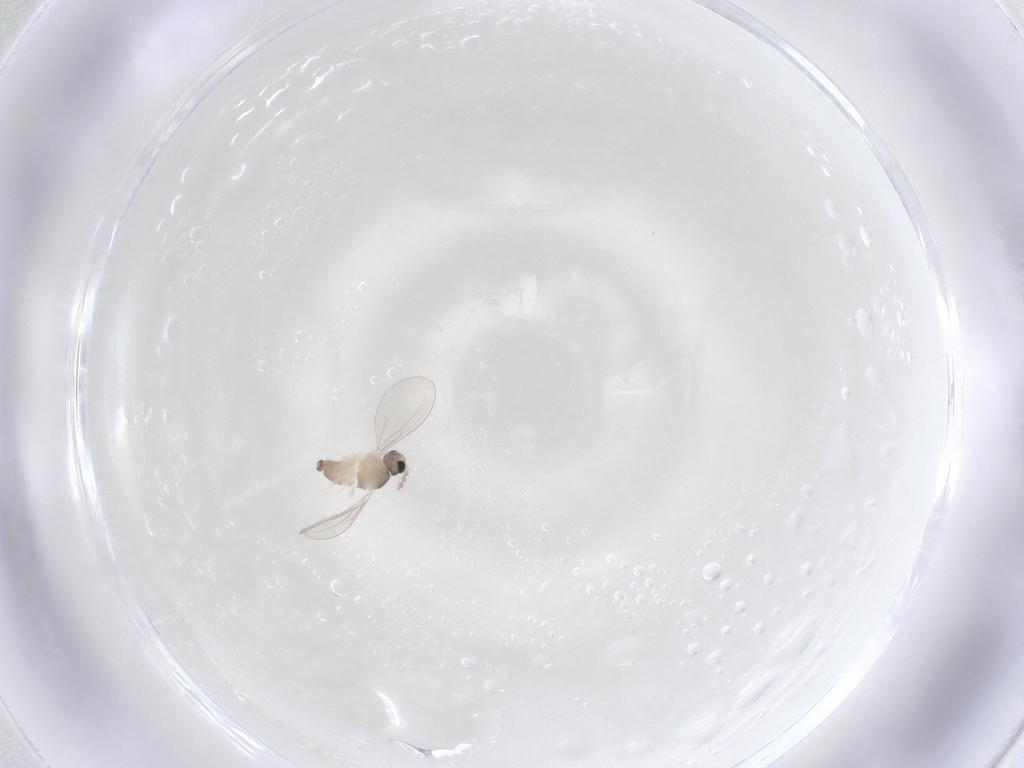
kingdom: Animalia
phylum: Arthropoda
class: Insecta
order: Diptera
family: Cecidomyiidae
